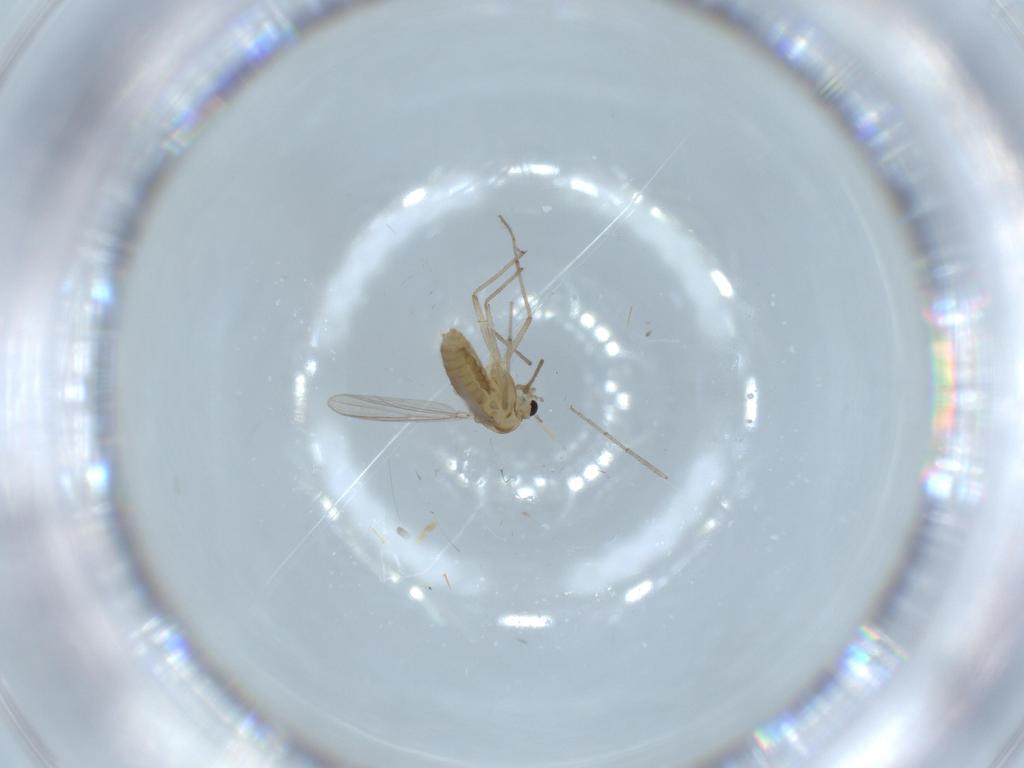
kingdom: Animalia
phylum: Arthropoda
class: Insecta
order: Diptera
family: Chironomidae
